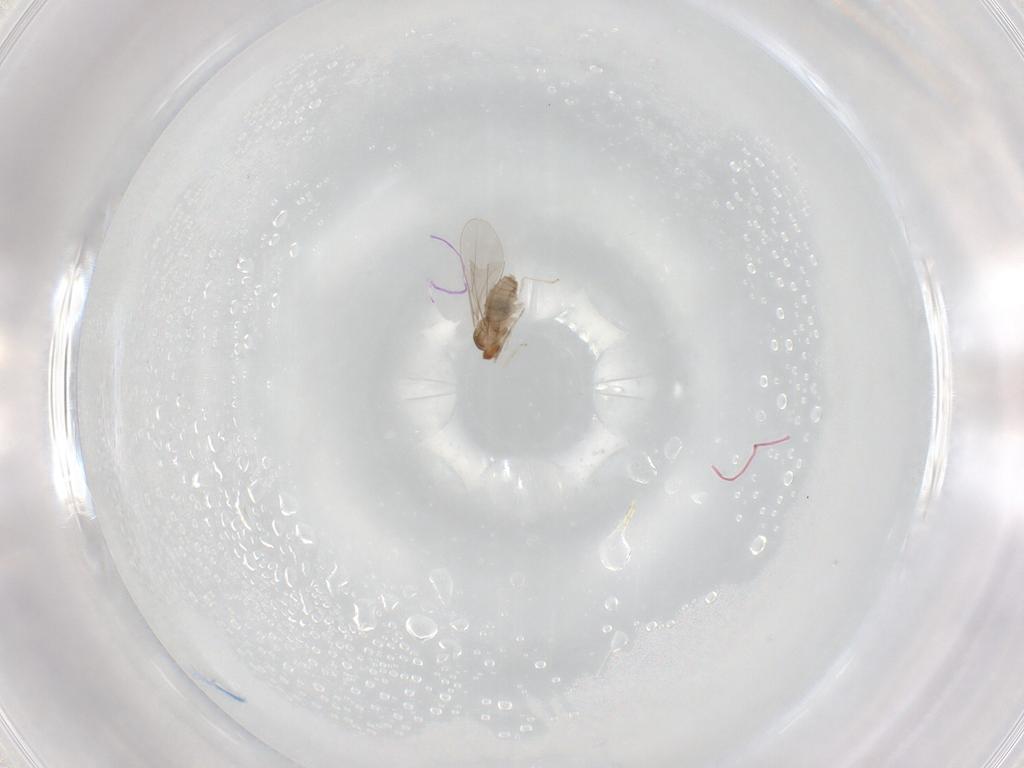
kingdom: Animalia
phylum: Arthropoda
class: Insecta
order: Diptera
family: Cecidomyiidae
